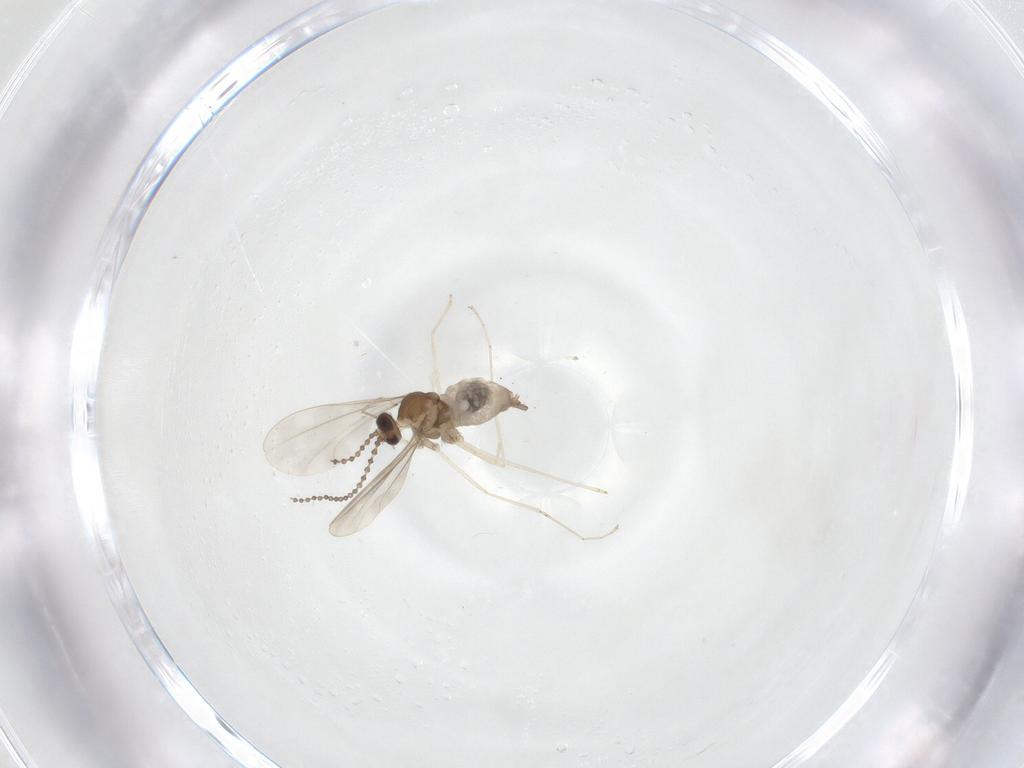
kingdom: Animalia
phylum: Arthropoda
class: Insecta
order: Diptera
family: Cecidomyiidae
